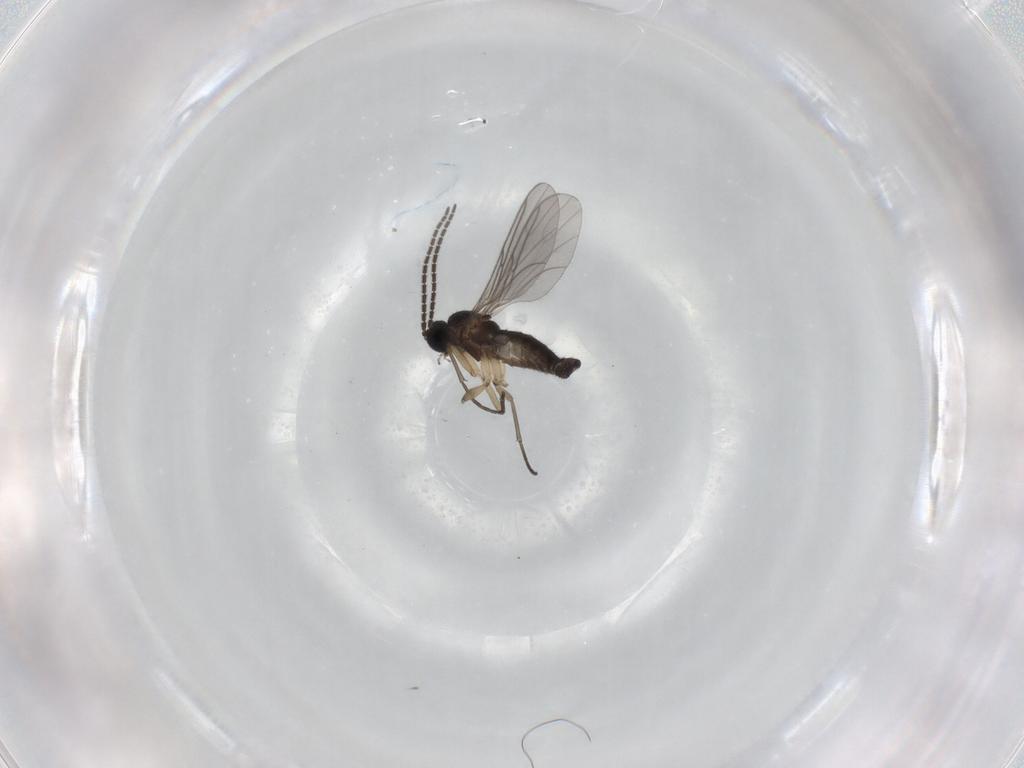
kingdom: Animalia
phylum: Arthropoda
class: Insecta
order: Diptera
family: Sciaridae
